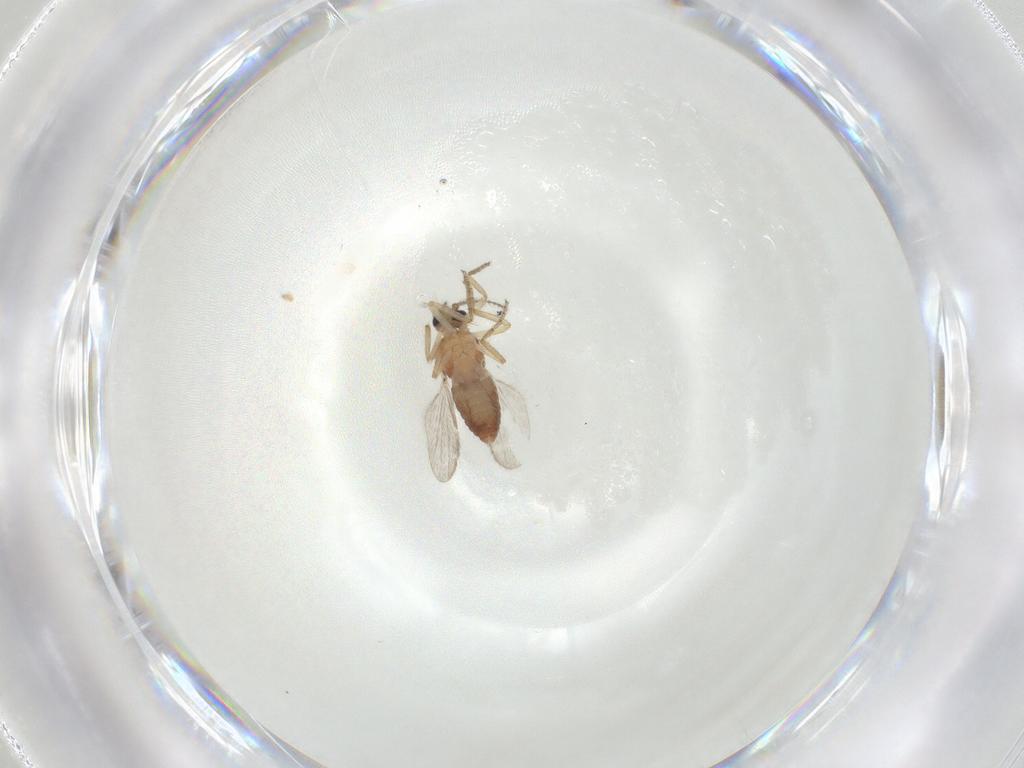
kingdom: Animalia
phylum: Arthropoda
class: Insecta
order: Diptera
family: Ceratopogonidae
